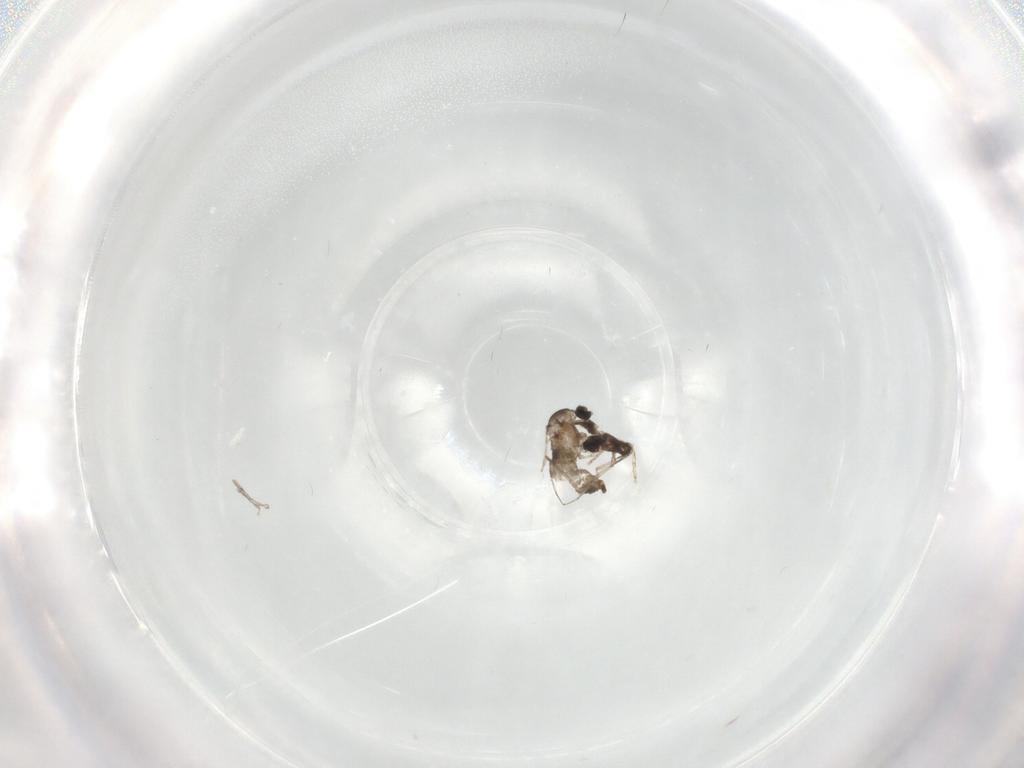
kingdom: Animalia
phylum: Arthropoda
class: Insecta
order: Diptera
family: Cecidomyiidae
